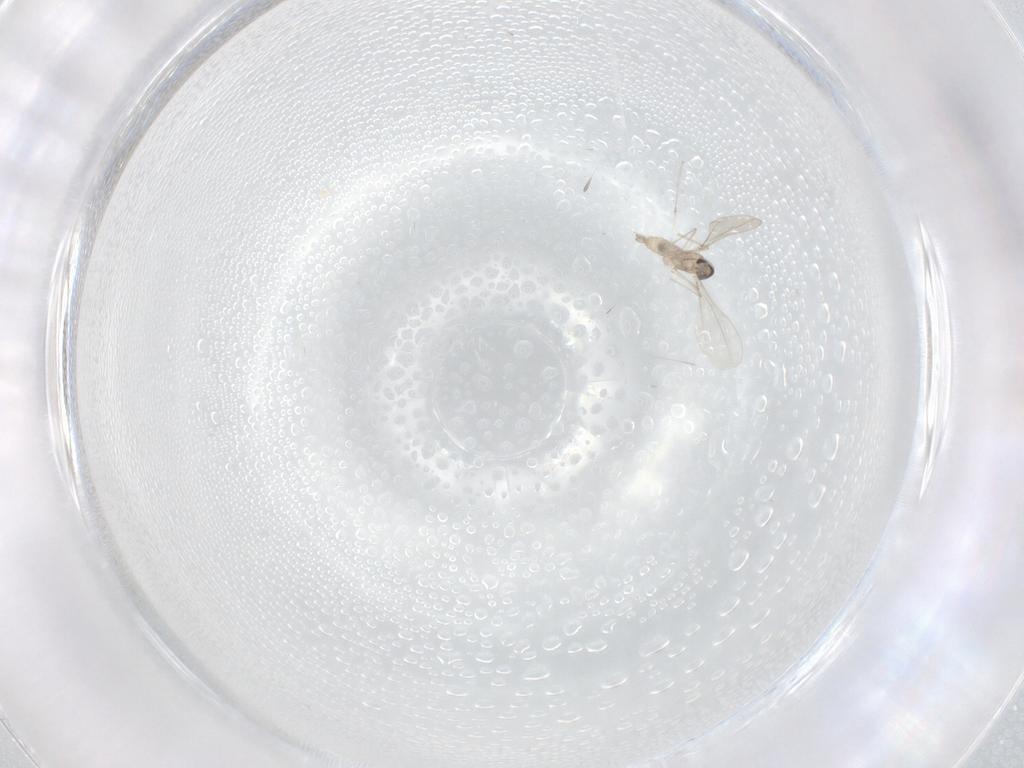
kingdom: Animalia
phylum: Arthropoda
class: Insecta
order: Diptera
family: Cecidomyiidae
